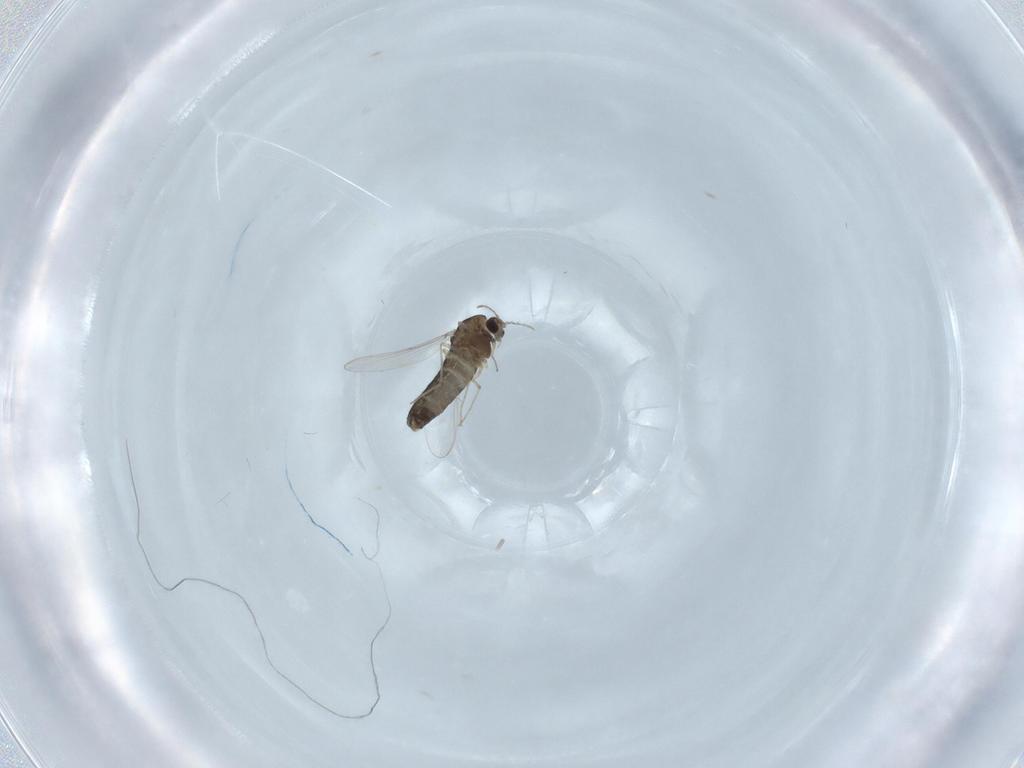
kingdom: Animalia
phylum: Arthropoda
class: Insecta
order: Diptera
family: Chironomidae
